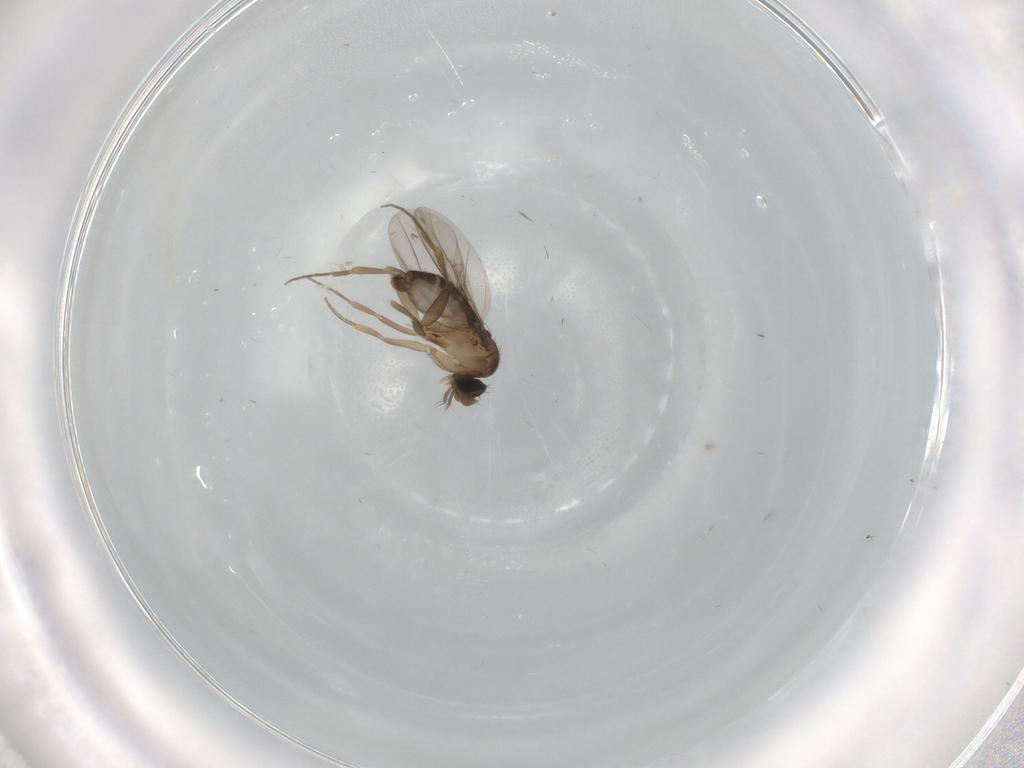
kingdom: Animalia
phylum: Arthropoda
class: Insecta
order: Diptera
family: Phoridae
